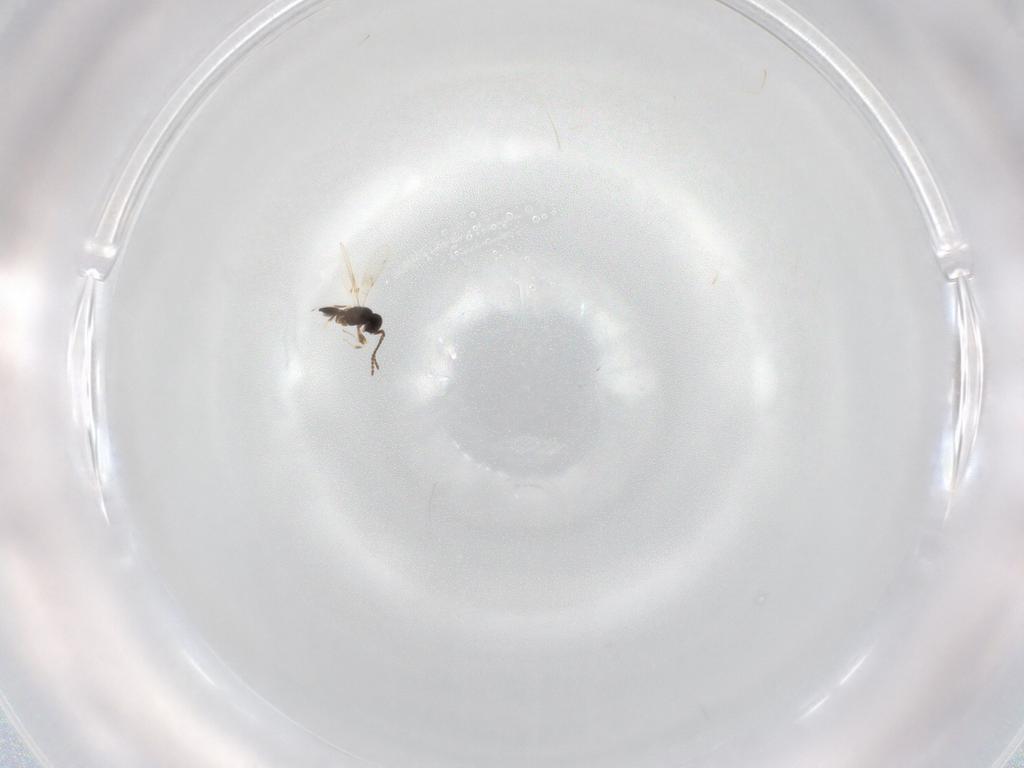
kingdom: Animalia
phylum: Arthropoda
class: Insecta
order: Hymenoptera
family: Scelionidae
